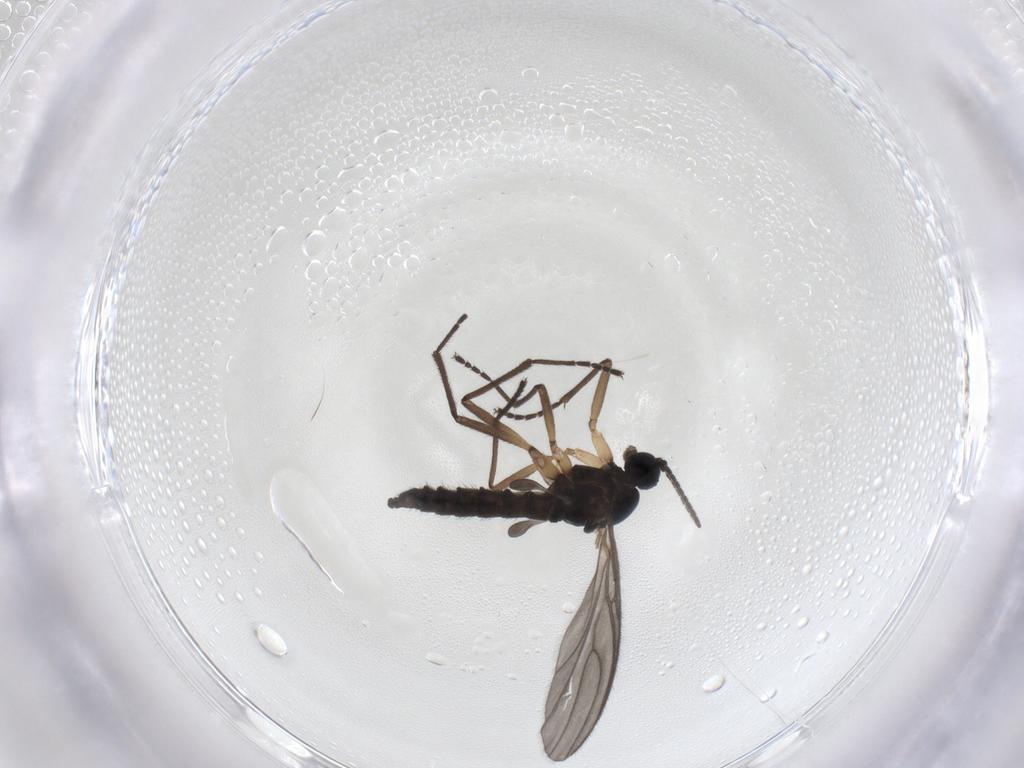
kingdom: Animalia
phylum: Arthropoda
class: Insecta
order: Diptera
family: Sciaridae
